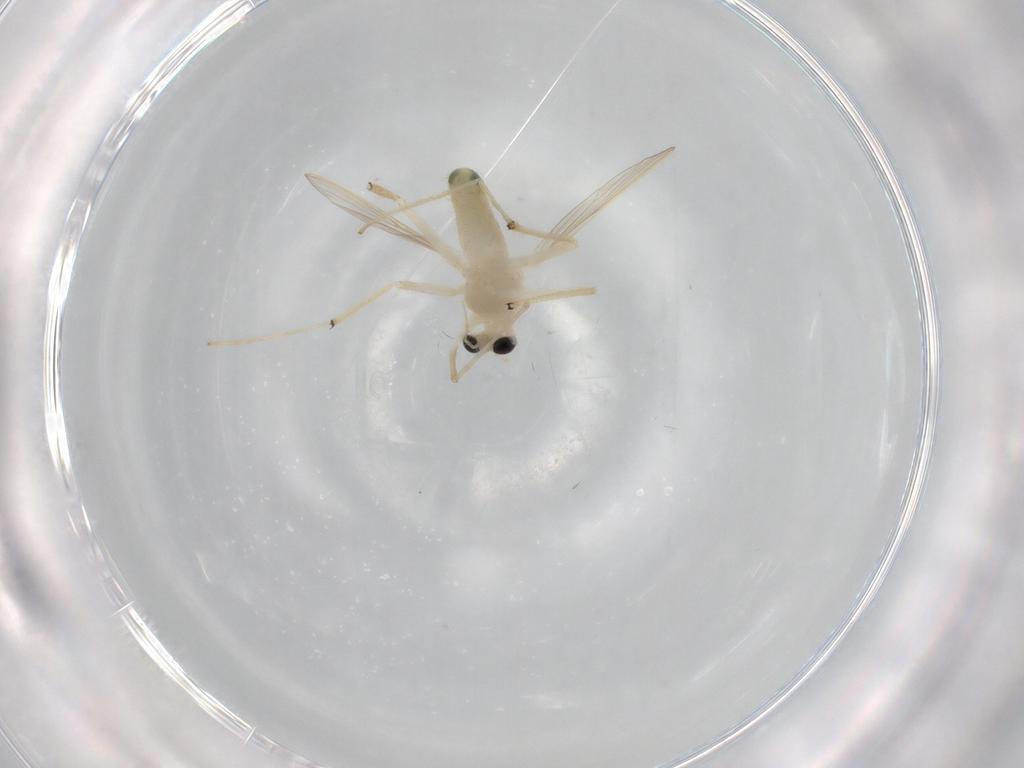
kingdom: Animalia
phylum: Arthropoda
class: Insecta
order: Diptera
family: Chironomidae
